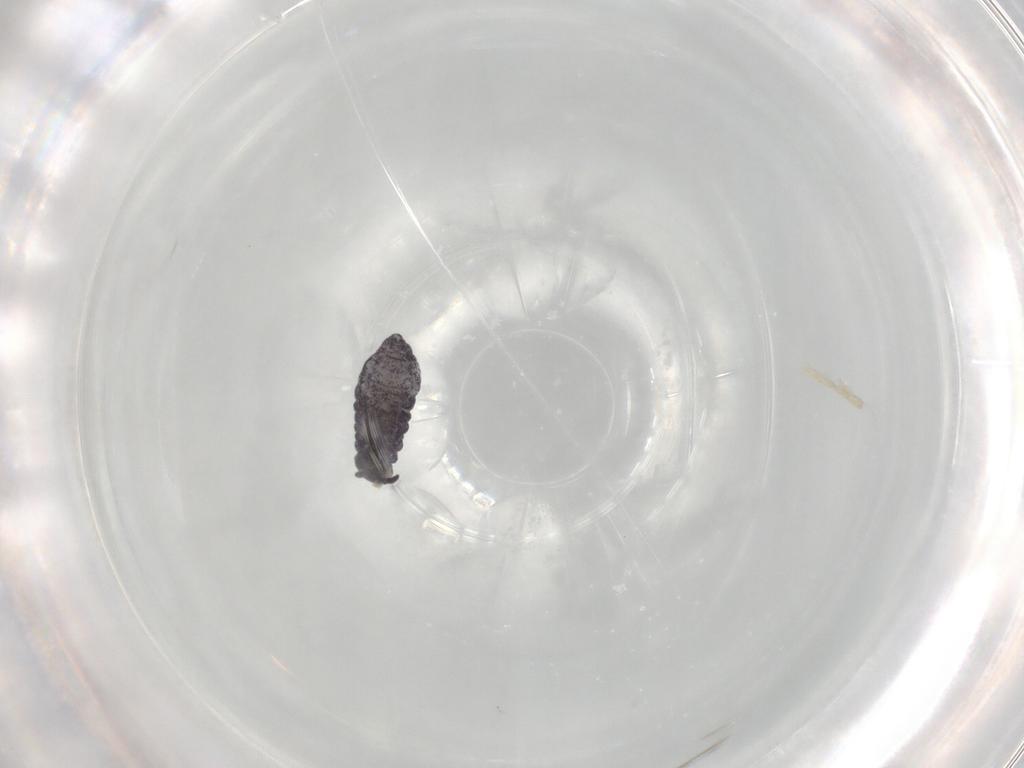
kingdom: Animalia
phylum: Arthropoda
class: Collembola
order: Poduromorpha
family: Brachystomellidae
